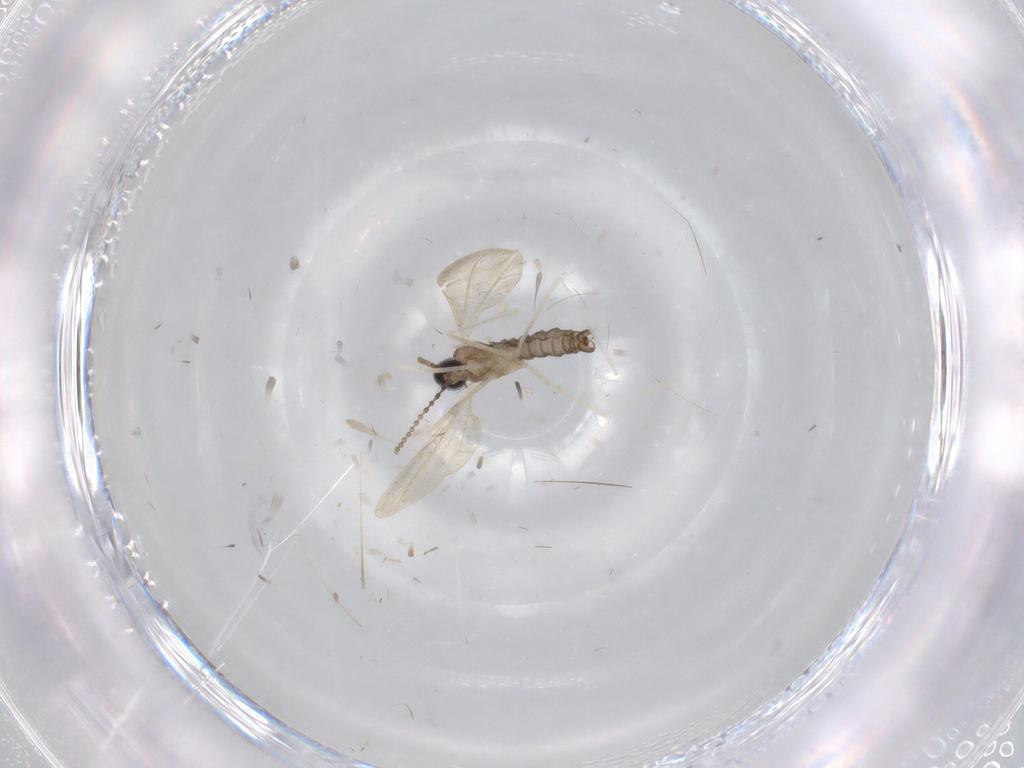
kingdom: Animalia
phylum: Arthropoda
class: Insecta
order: Diptera
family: Cecidomyiidae
